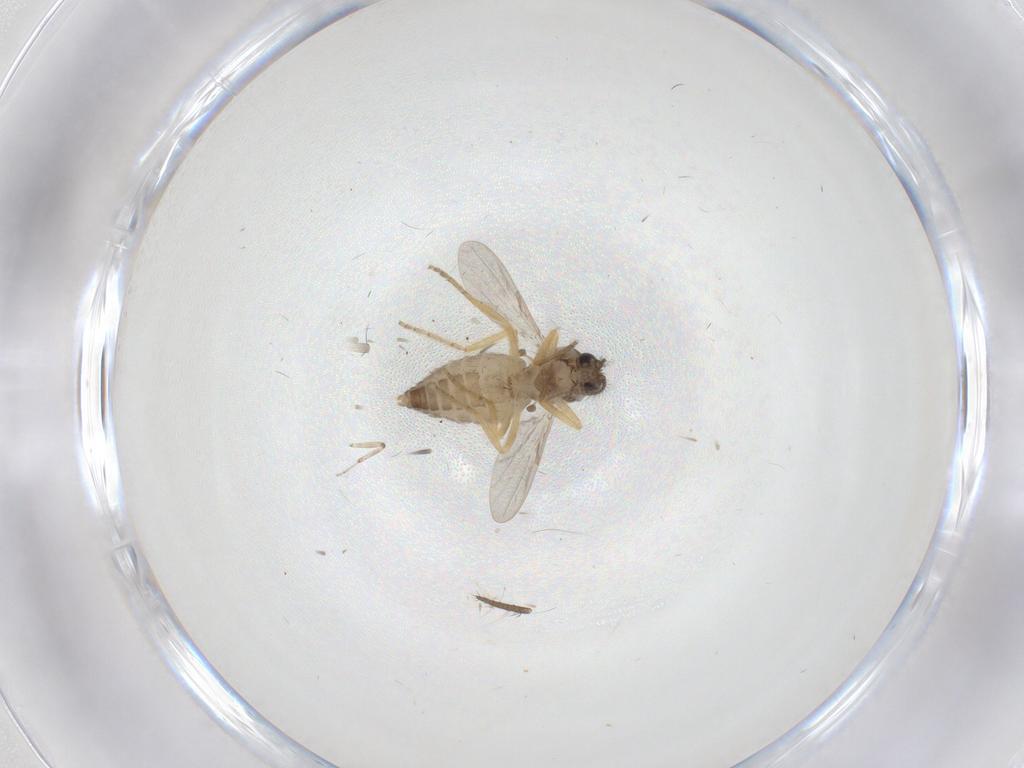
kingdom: Animalia
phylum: Arthropoda
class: Insecta
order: Diptera
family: Ceratopogonidae
